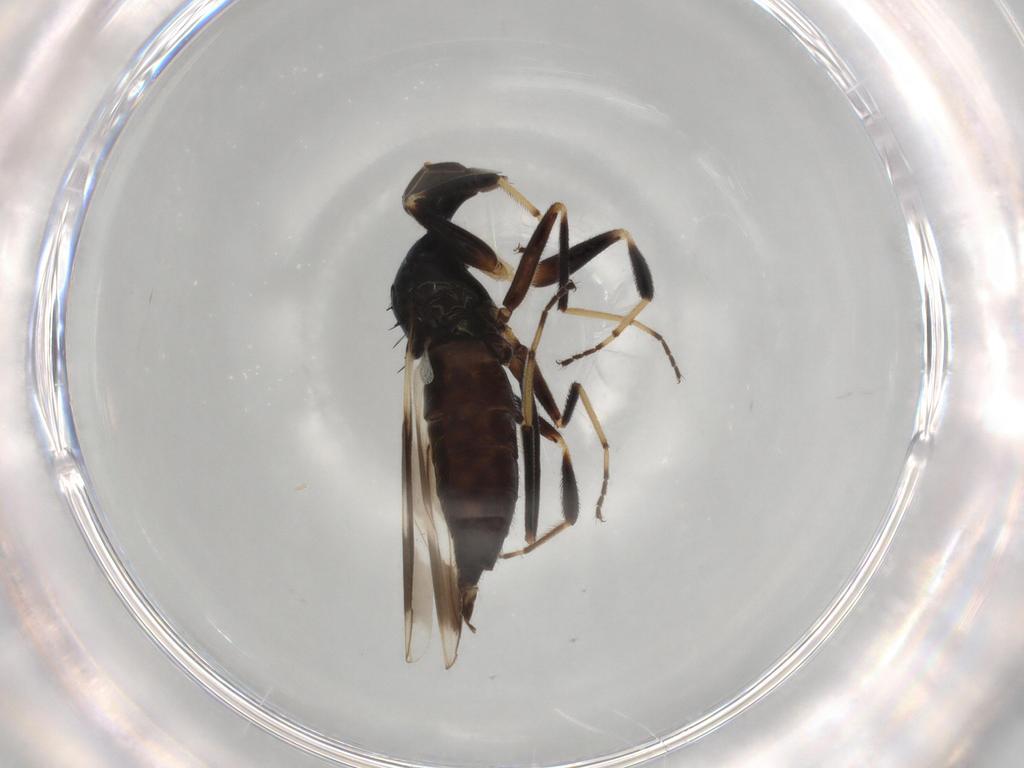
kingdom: Animalia
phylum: Arthropoda
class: Insecta
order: Diptera
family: Hybotidae
